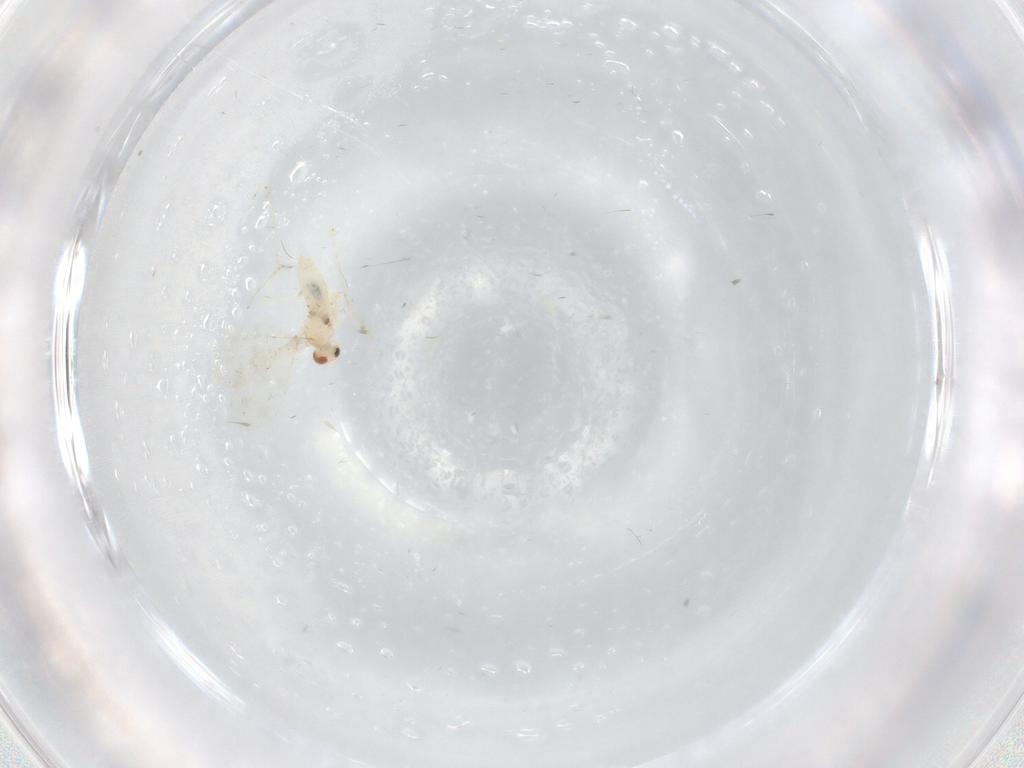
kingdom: Animalia
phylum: Arthropoda
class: Insecta
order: Diptera
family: Cecidomyiidae
